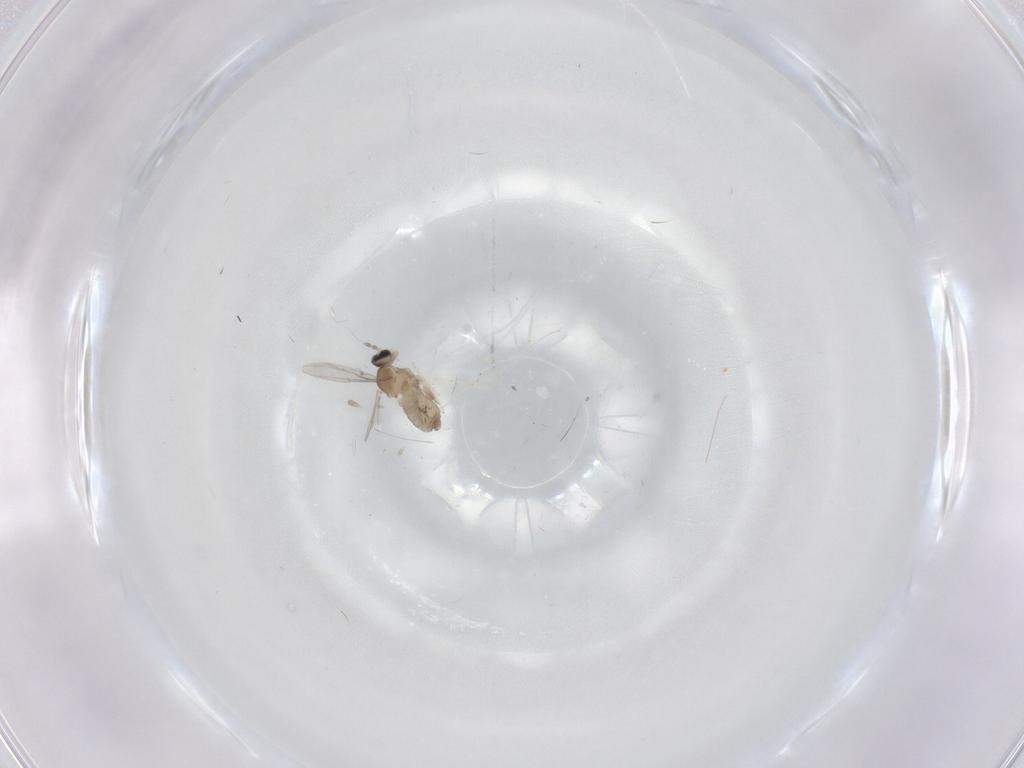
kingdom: Animalia
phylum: Arthropoda
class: Insecta
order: Diptera
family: Cecidomyiidae
